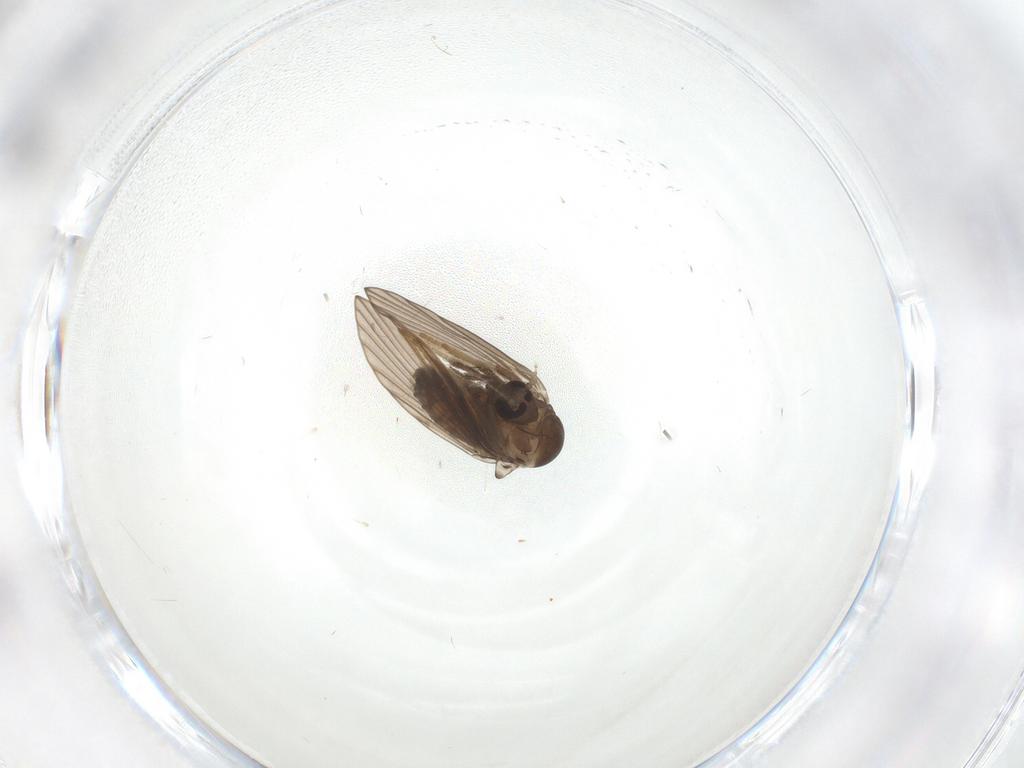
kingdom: Animalia
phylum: Arthropoda
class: Insecta
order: Diptera
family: Psychodidae
